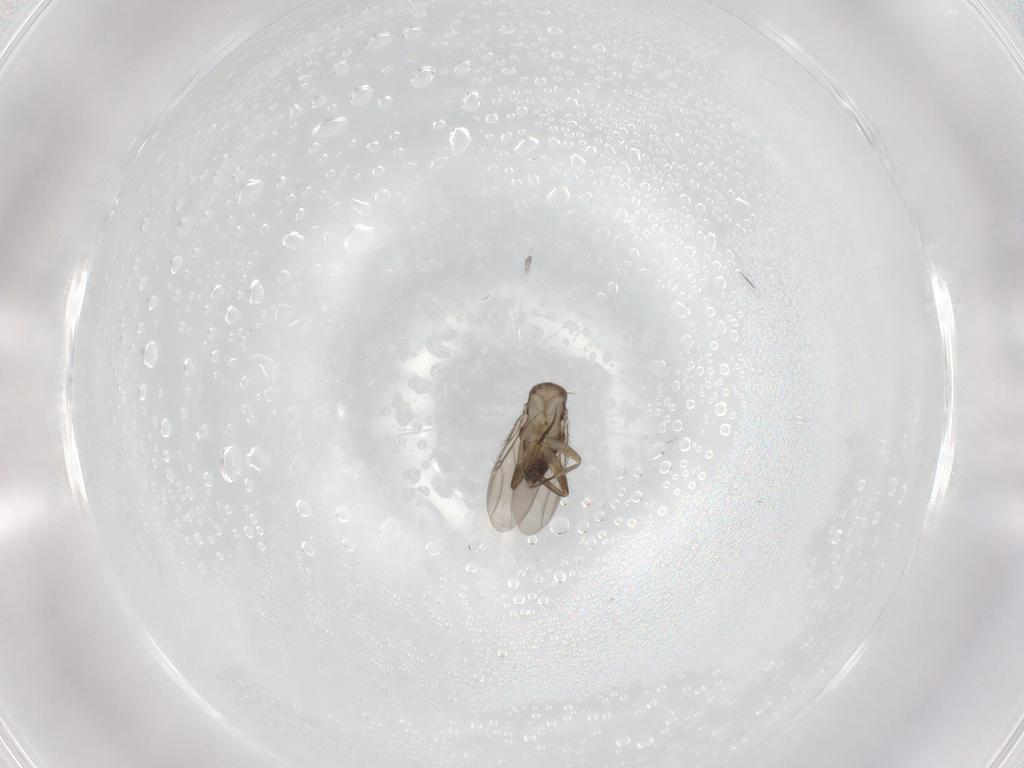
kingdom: Animalia
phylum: Arthropoda
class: Insecta
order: Diptera
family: Phoridae
